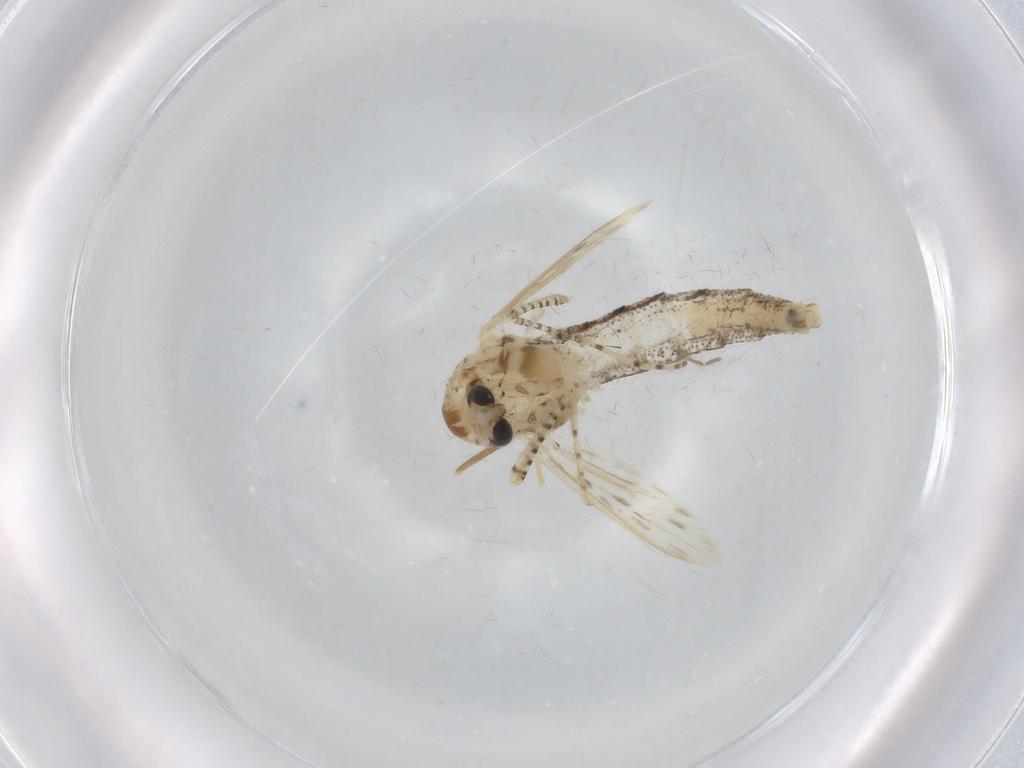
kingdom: Animalia
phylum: Arthropoda
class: Insecta
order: Diptera
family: Chaoboridae
